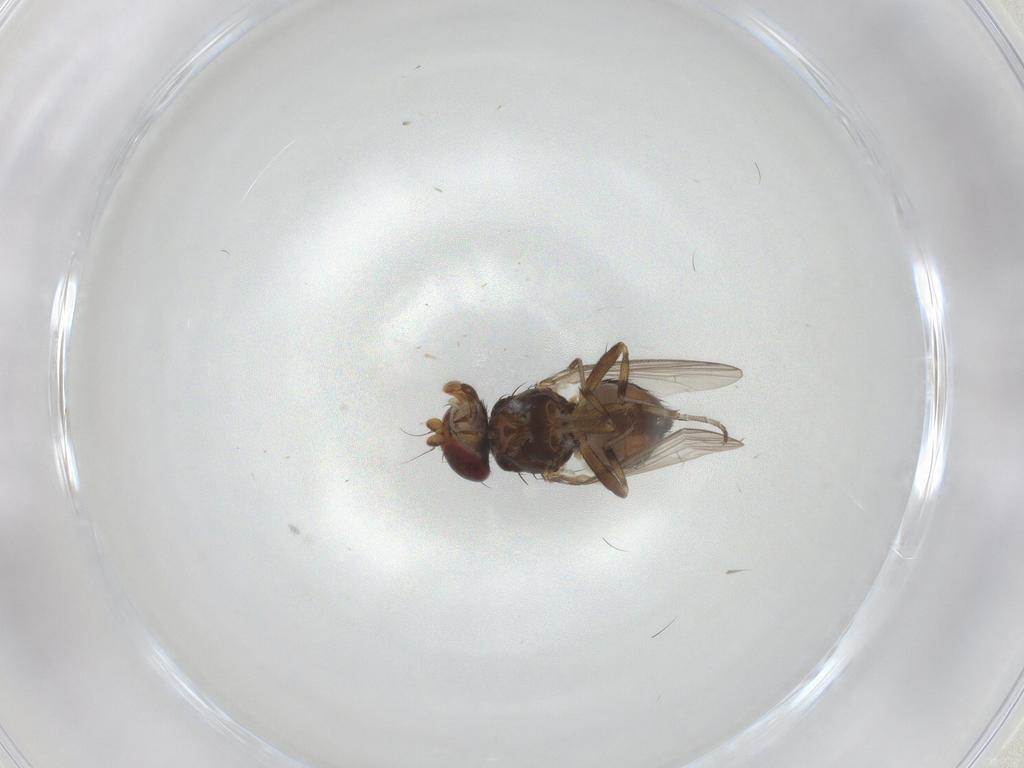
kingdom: Animalia
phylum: Arthropoda
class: Insecta
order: Diptera
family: Heleomyzidae
